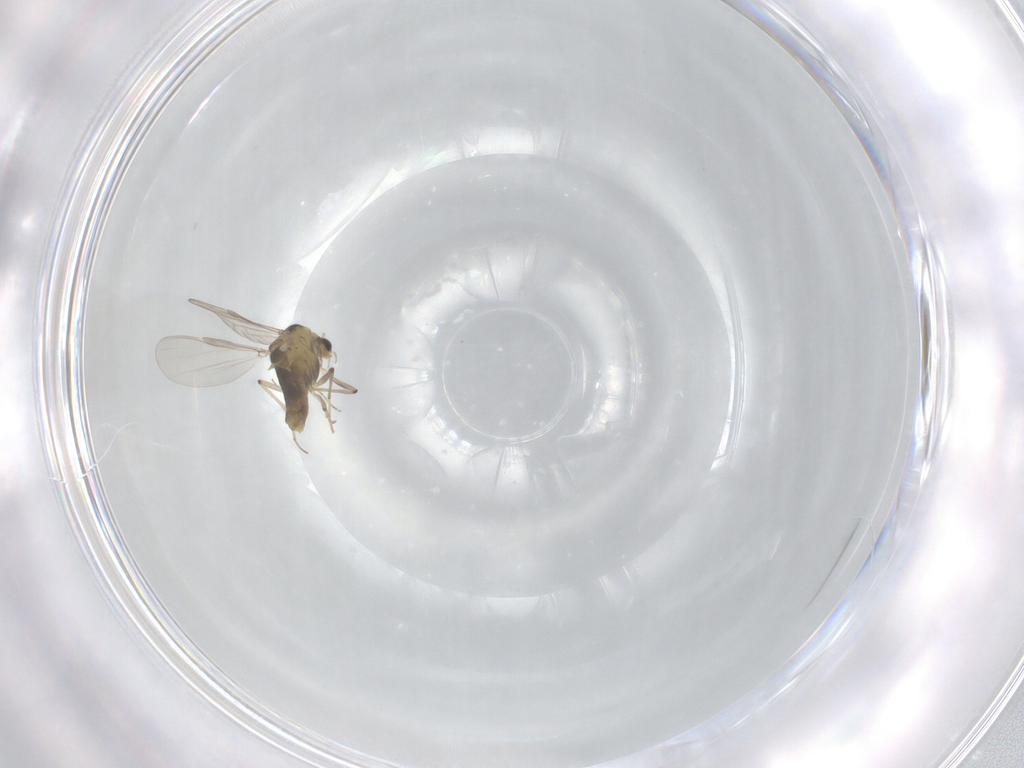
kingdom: Animalia
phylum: Arthropoda
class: Insecta
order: Diptera
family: Chironomidae
